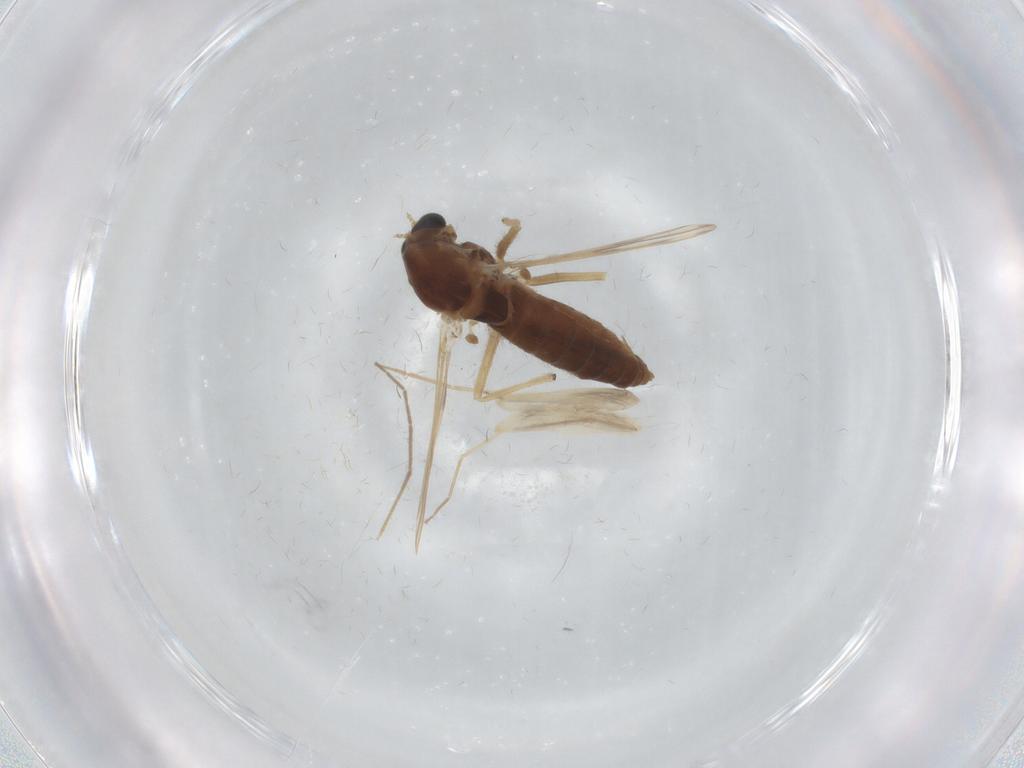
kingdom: Animalia
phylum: Arthropoda
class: Insecta
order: Diptera
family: Chironomidae
